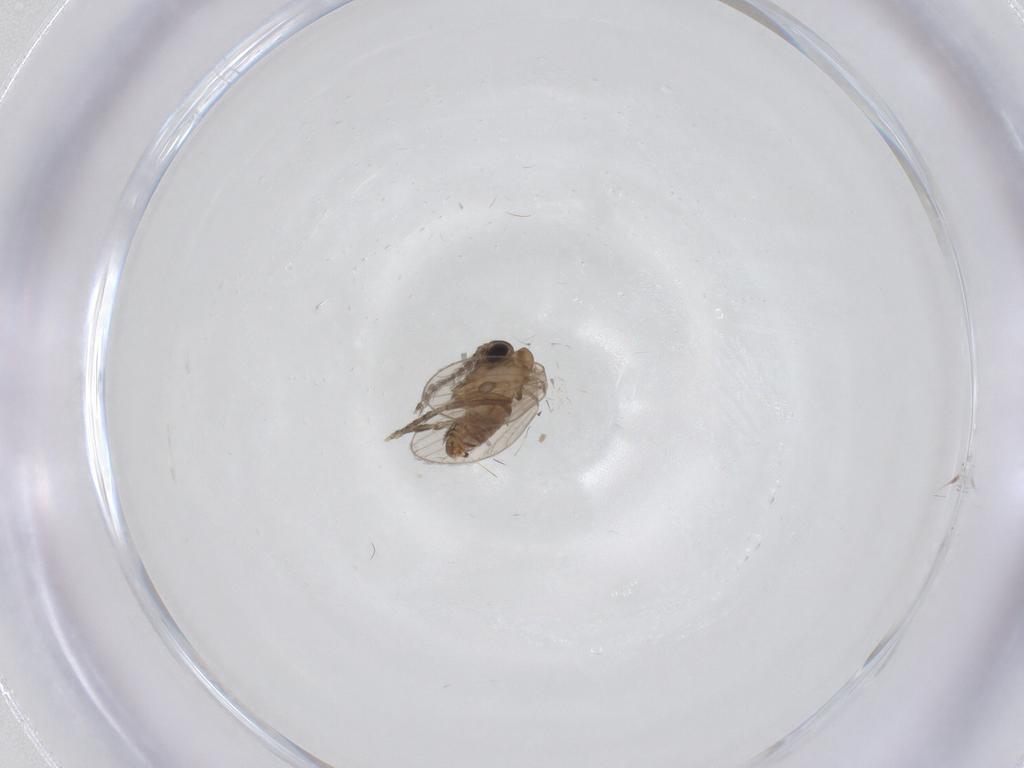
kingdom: Animalia
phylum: Arthropoda
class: Insecta
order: Diptera
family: Psychodidae
